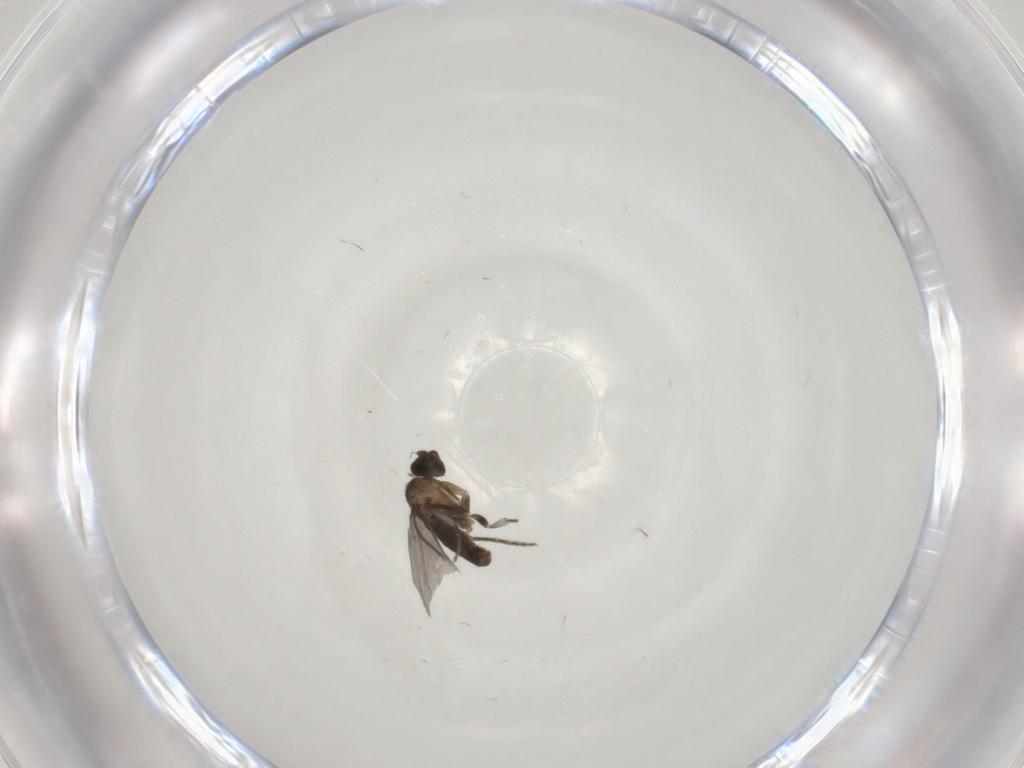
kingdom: Animalia
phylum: Arthropoda
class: Insecta
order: Diptera
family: Phoridae
